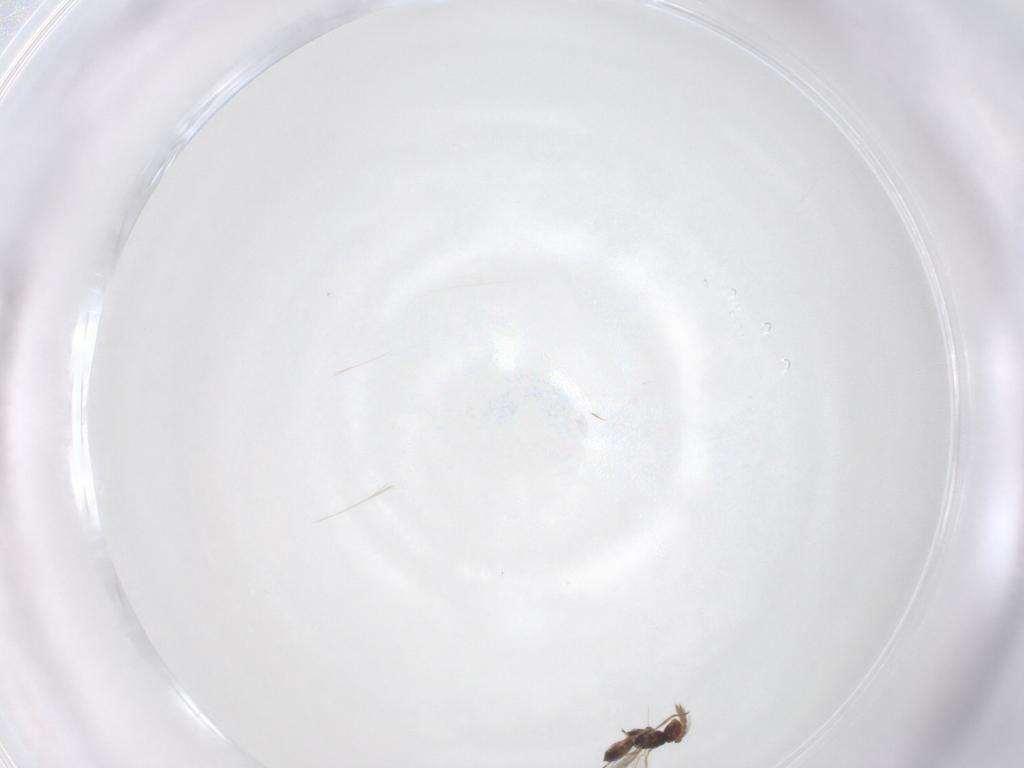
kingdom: Animalia
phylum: Arthropoda
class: Insecta
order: Hymenoptera
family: Eulophidae
